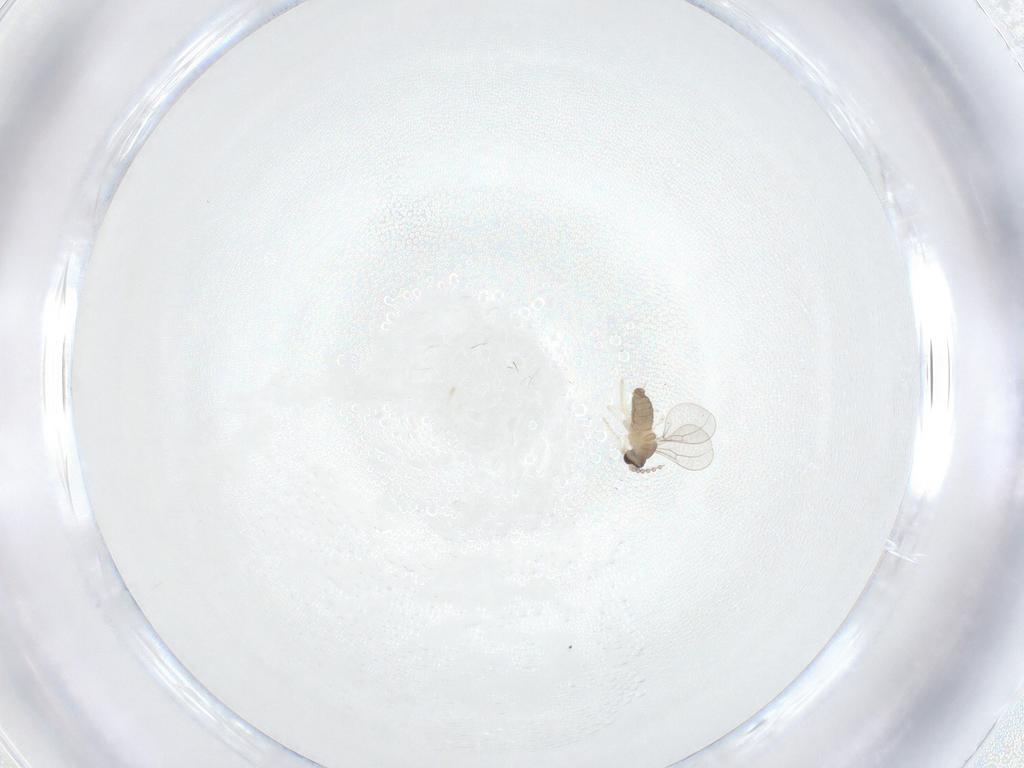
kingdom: Animalia
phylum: Arthropoda
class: Insecta
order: Diptera
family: Cecidomyiidae
